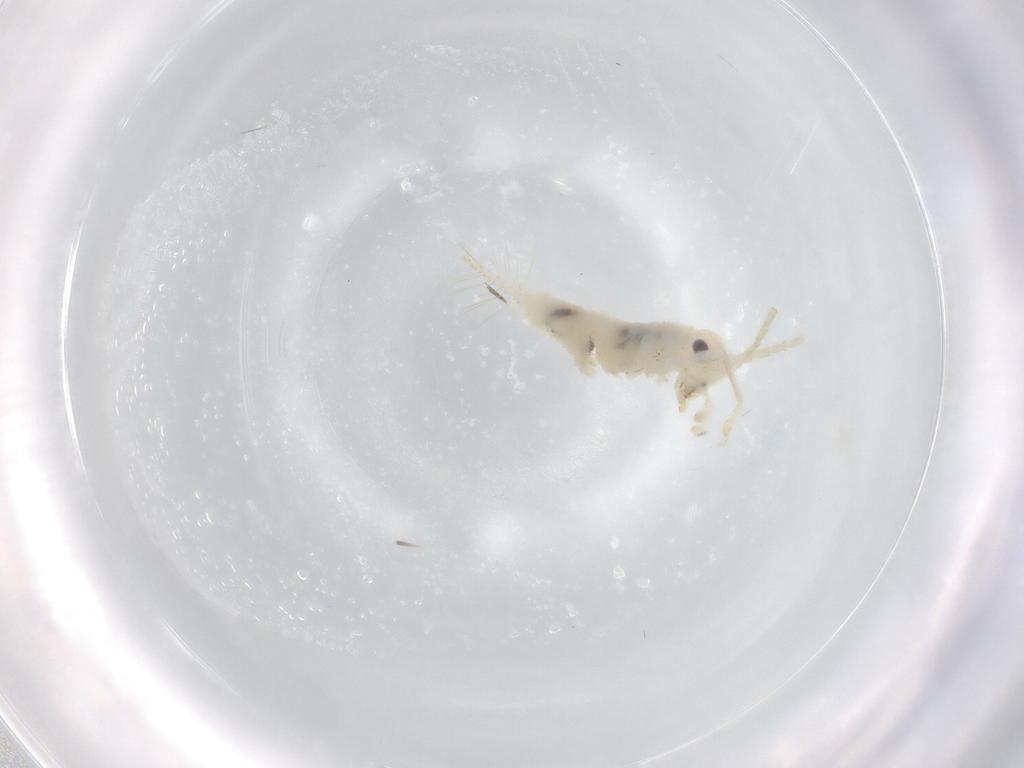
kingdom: Animalia
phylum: Arthropoda
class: Insecta
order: Orthoptera
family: Trigonidiidae
